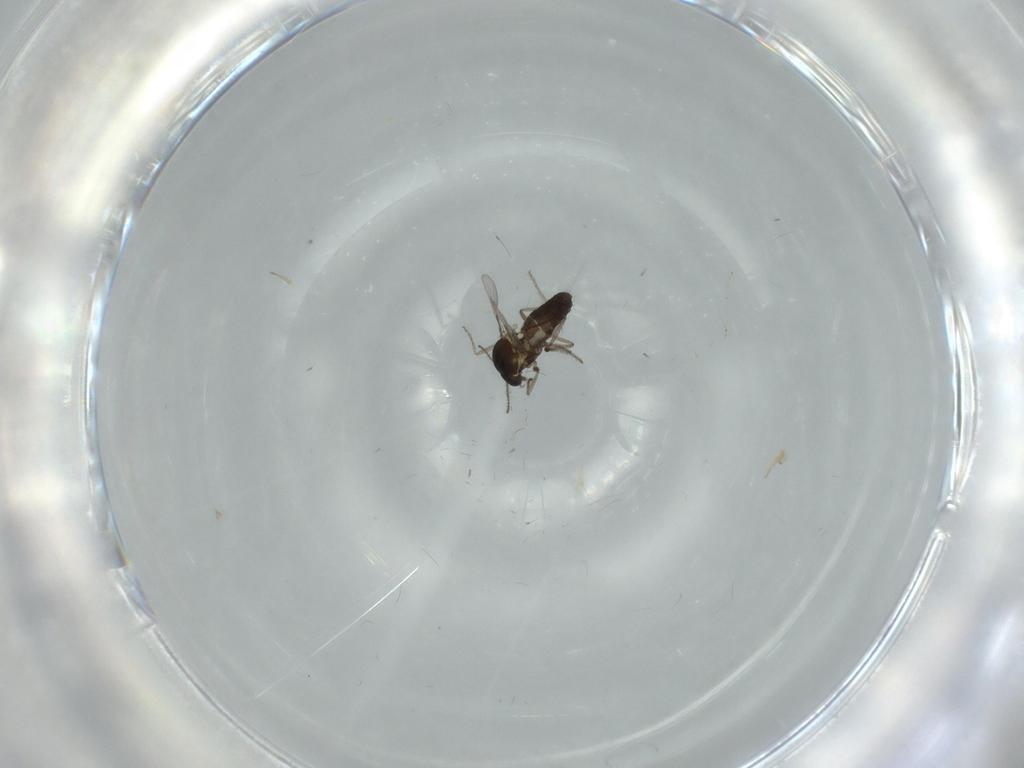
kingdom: Animalia
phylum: Arthropoda
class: Insecta
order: Diptera
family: Cecidomyiidae
